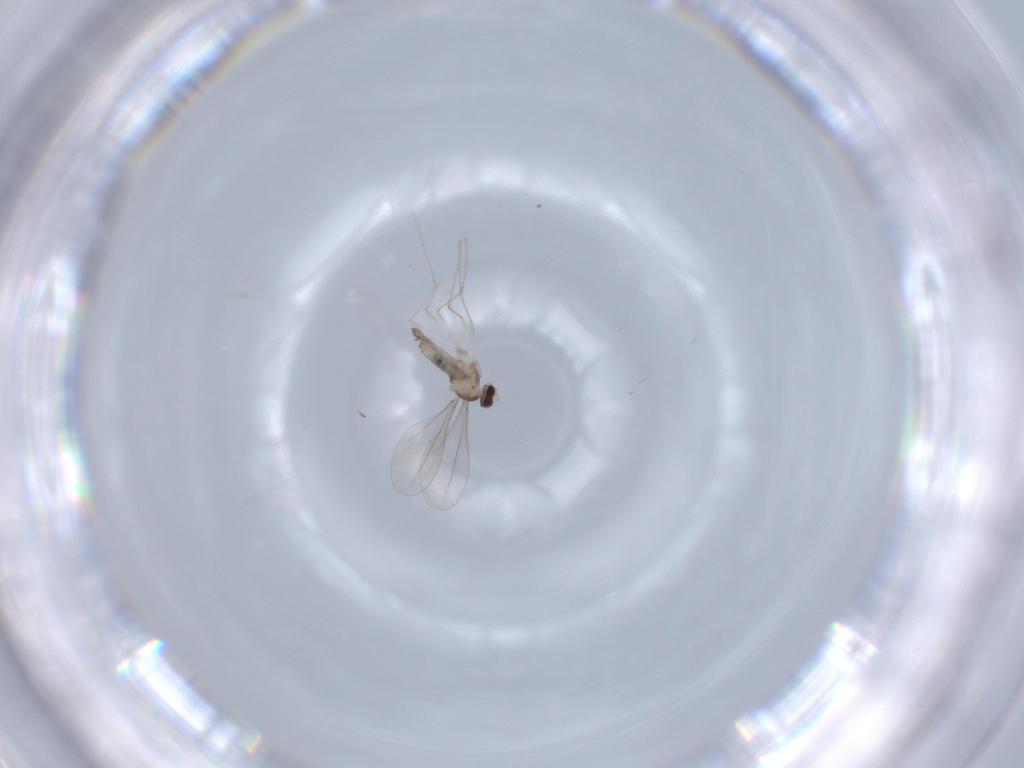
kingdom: Animalia
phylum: Arthropoda
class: Insecta
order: Diptera
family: Cecidomyiidae
